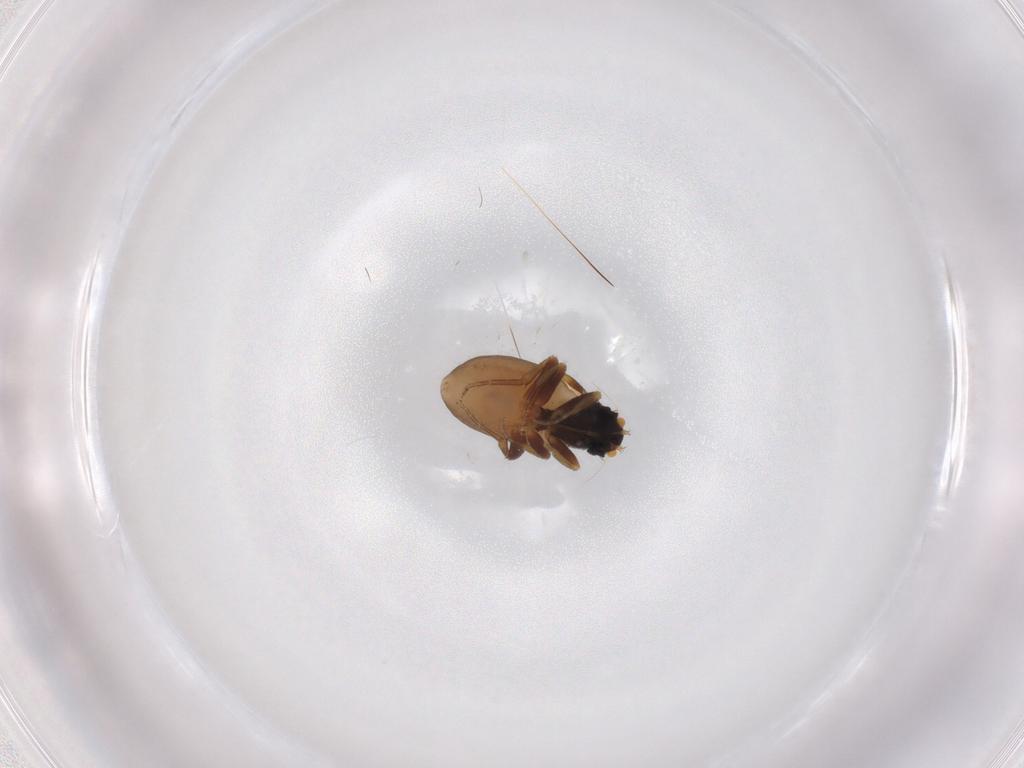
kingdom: Animalia
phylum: Arthropoda
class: Insecta
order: Diptera
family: Phoridae
